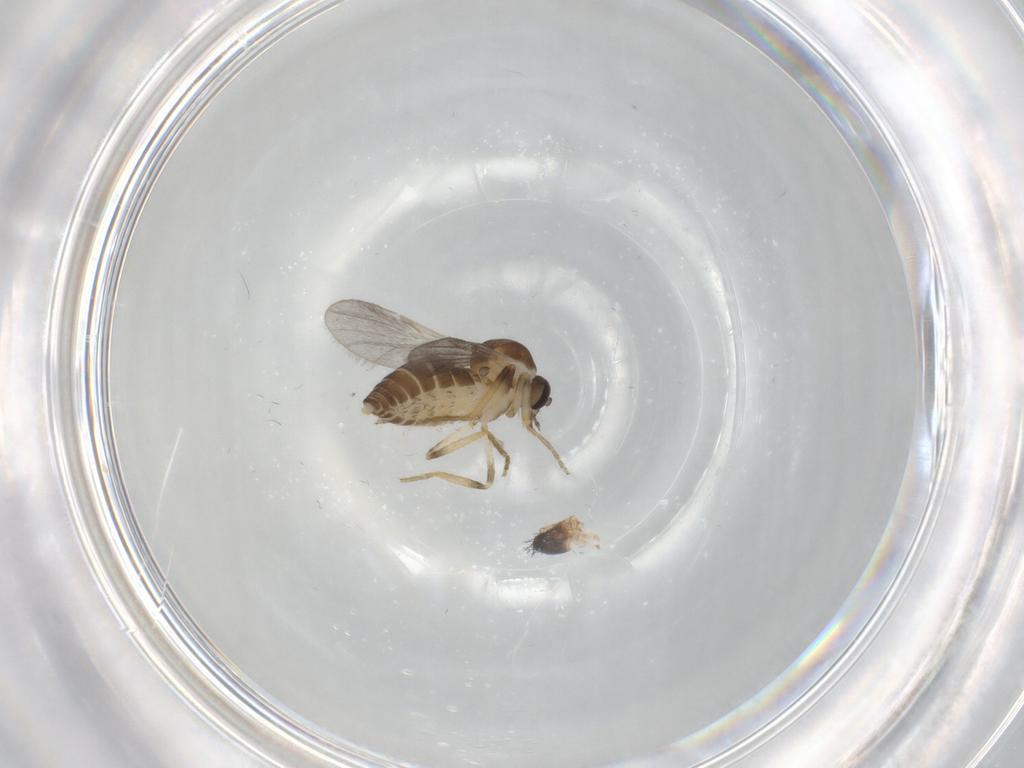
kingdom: Animalia
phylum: Arthropoda
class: Insecta
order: Diptera
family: Ceratopogonidae
